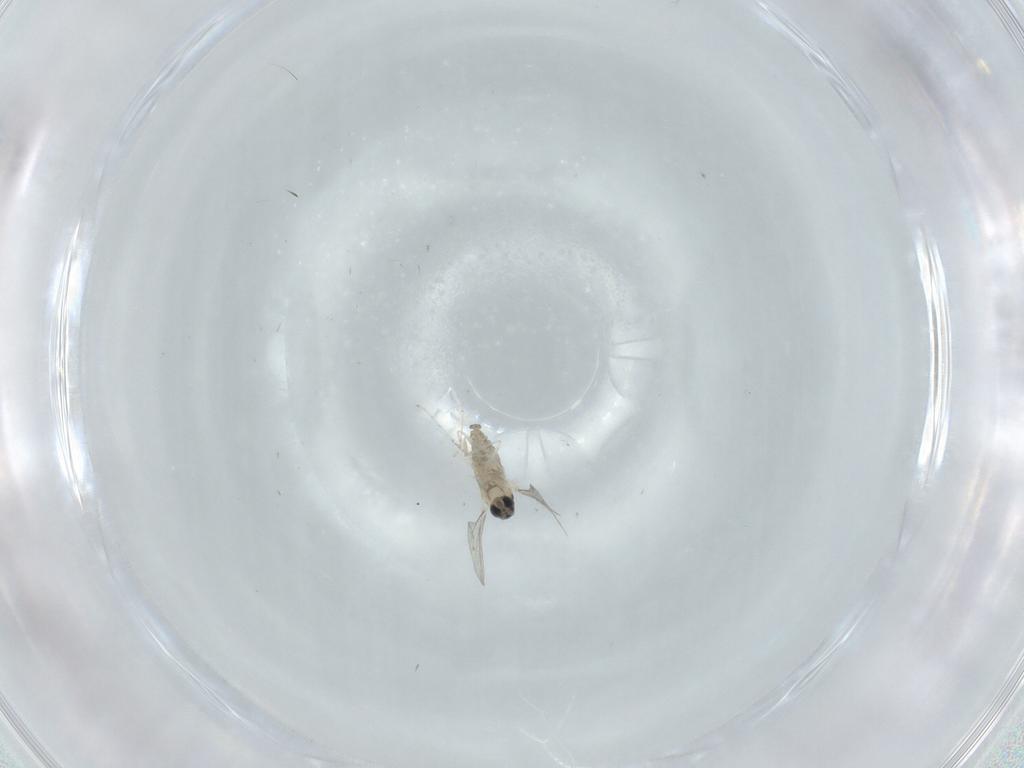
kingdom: Animalia
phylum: Arthropoda
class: Insecta
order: Diptera
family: Cecidomyiidae
